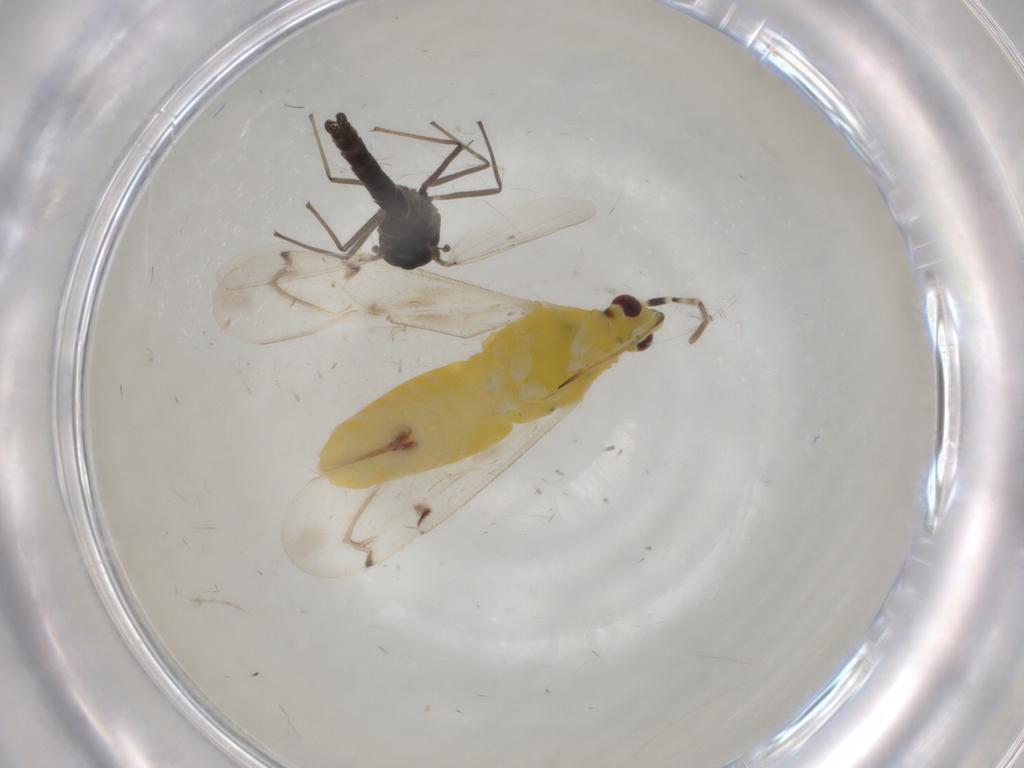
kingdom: Animalia
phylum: Arthropoda
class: Insecta
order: Diptera
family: Chironomidae
